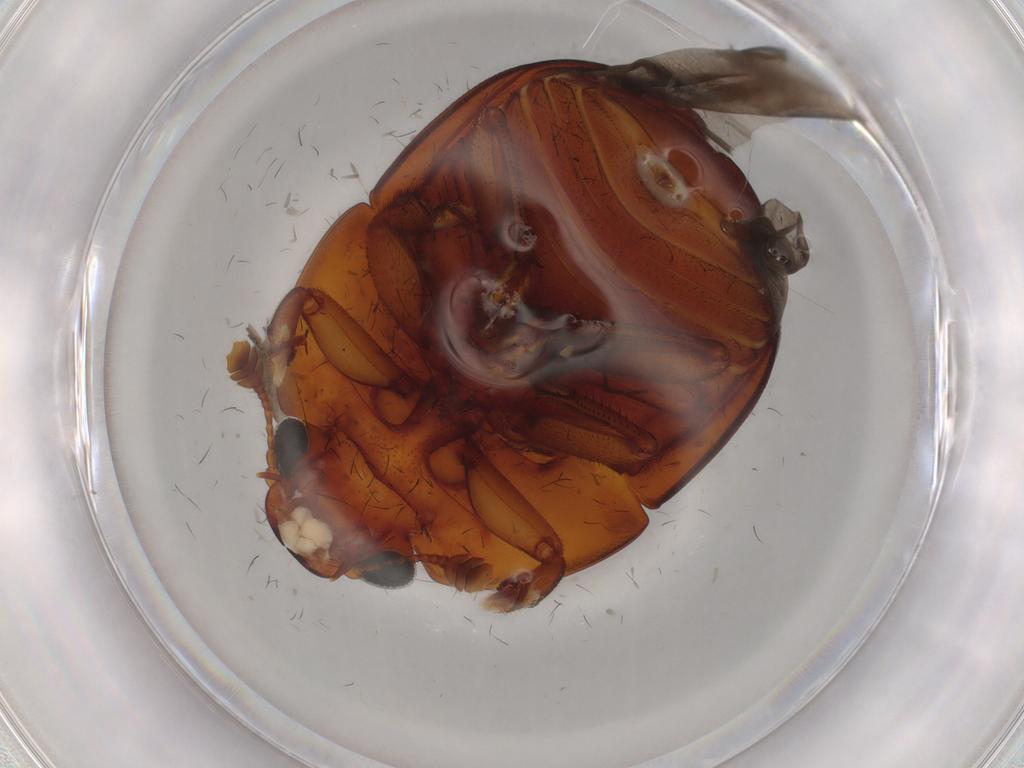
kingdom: Animalia
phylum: Arthropoda
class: Insecta
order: Coleoptera
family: Nitidulidae
